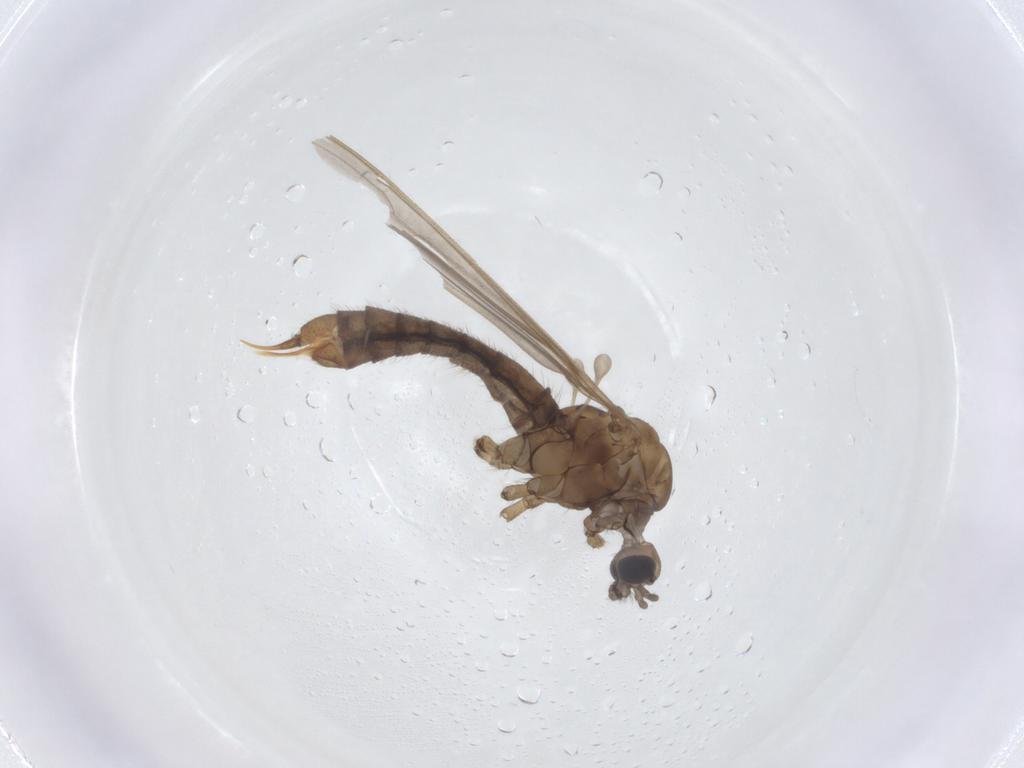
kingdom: Animalia
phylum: Arthropoda
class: Insecta
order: Diptera
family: Limoniidae
